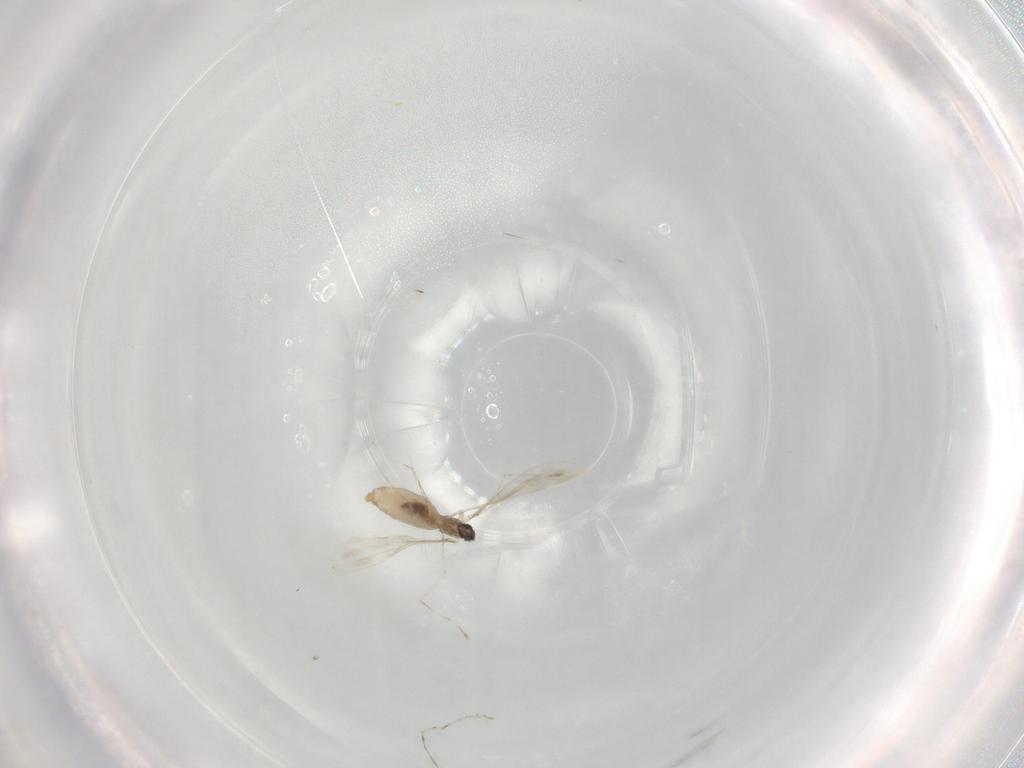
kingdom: Animalia
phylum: Arthropoda
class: Insecta
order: Diptera
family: Cecidomyiidae
